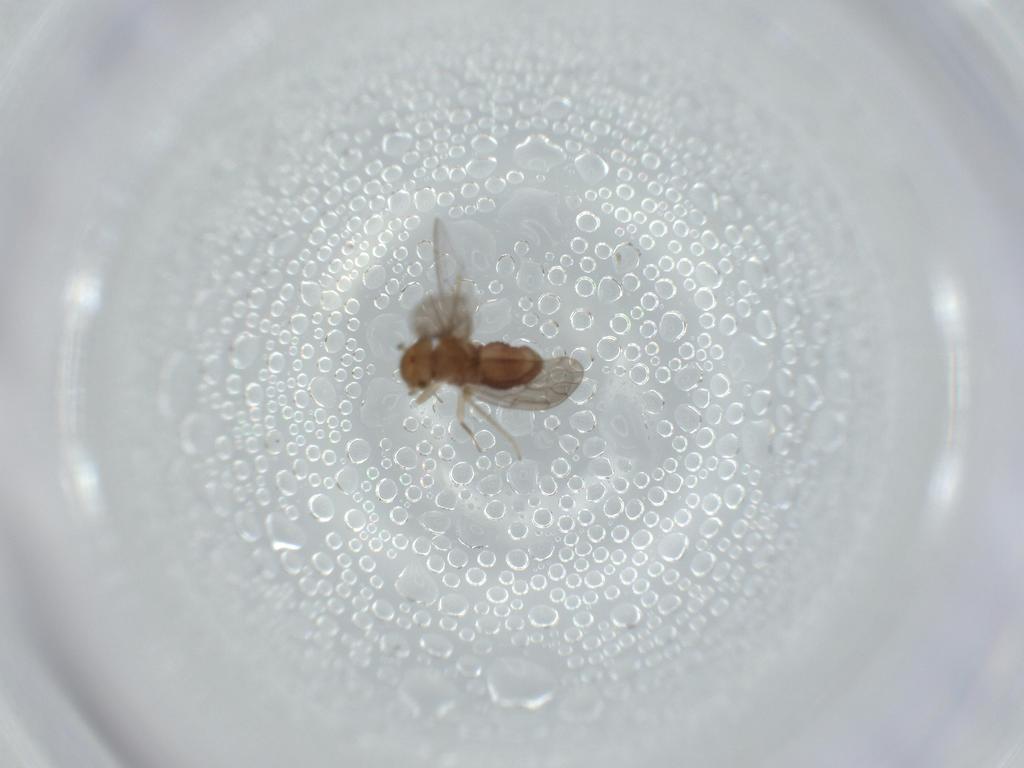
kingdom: Animalia
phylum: Arthropoda
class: Insecta
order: Psocodea
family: Ectopsocidae
